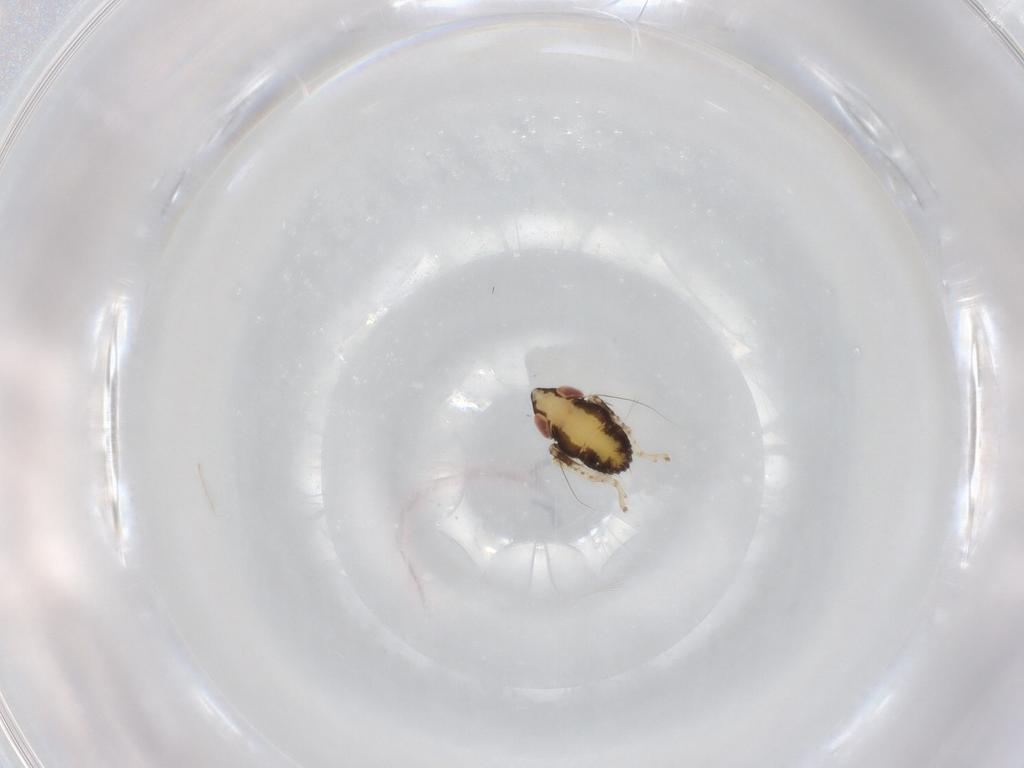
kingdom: Animalia
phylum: Arthropoda
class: Insecta
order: Hemiptera
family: Cicadellidae
